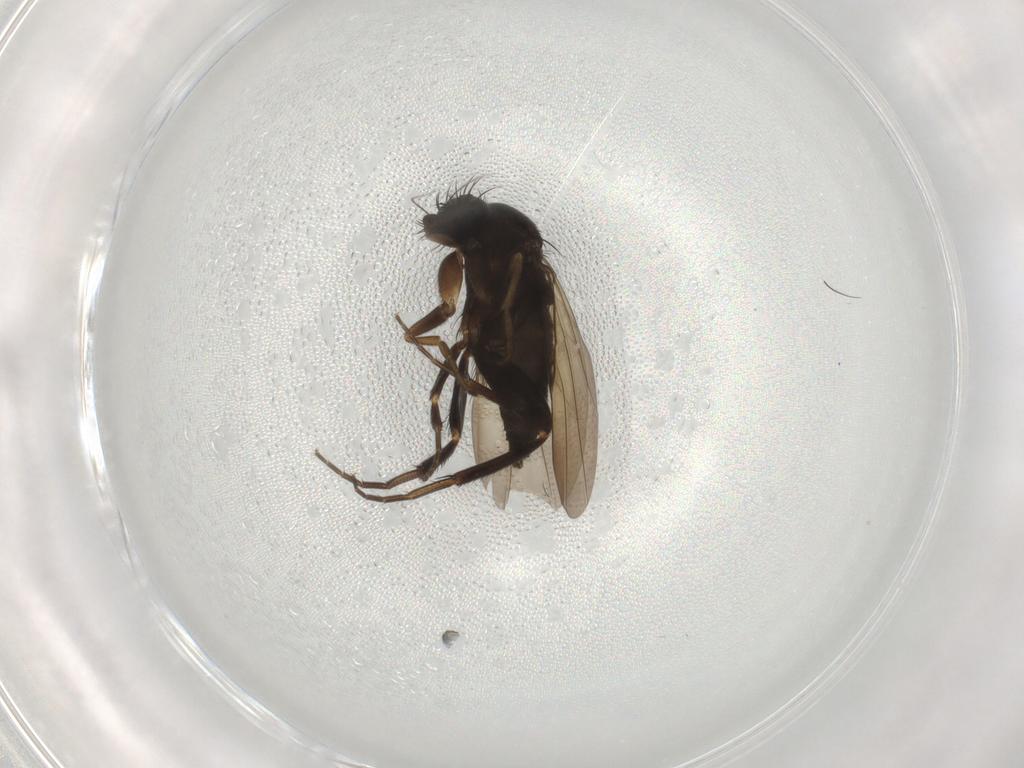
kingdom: Animalia
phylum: Arthropoda
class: Insecta
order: Diptera
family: Phoridae
